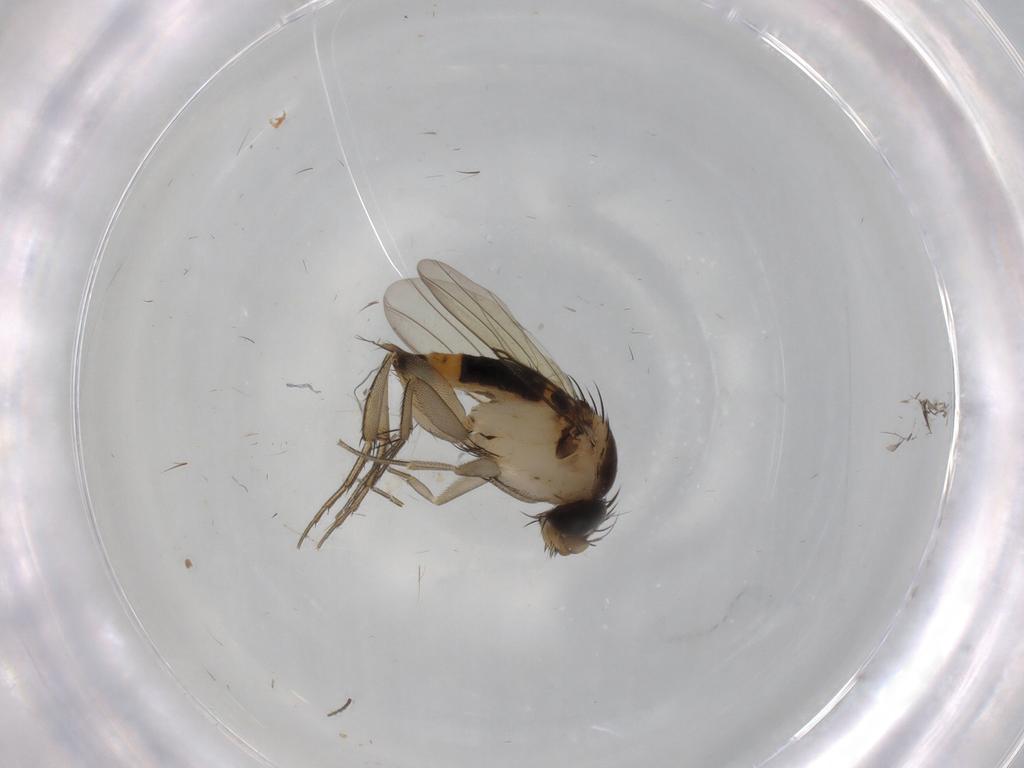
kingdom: Animalia
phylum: Arthropoda
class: Insecta
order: Diptera
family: Phoridae
